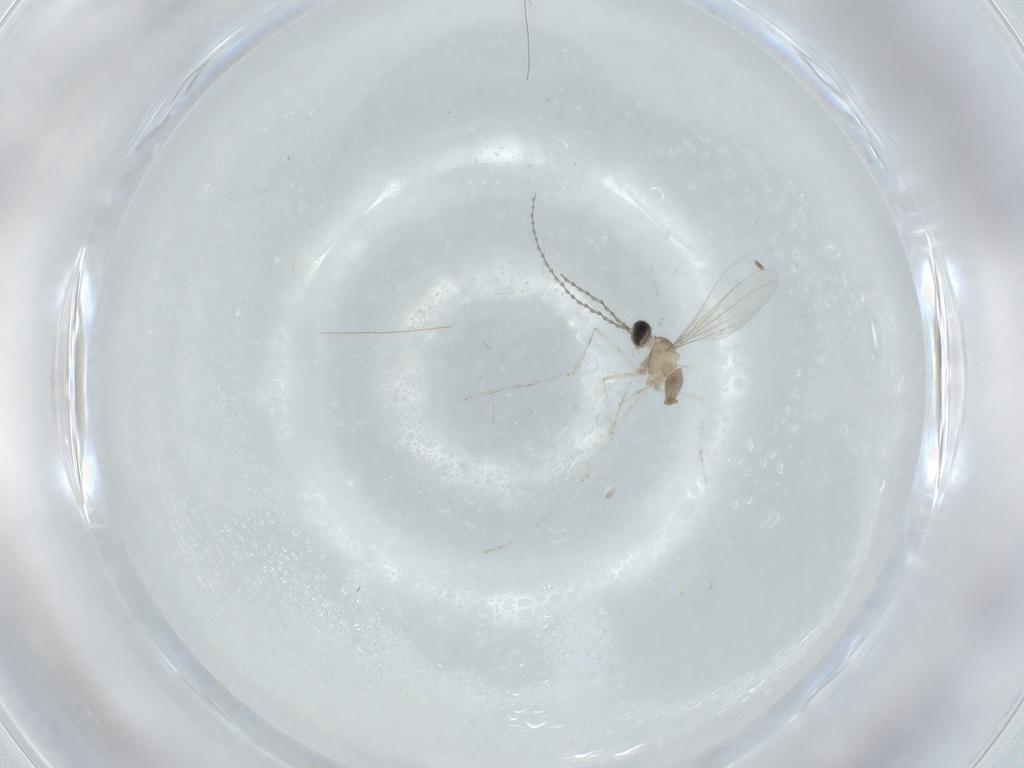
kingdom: Animalia
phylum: Arthropoda
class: Insecta
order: Diptera
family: Cecidomyiidae
